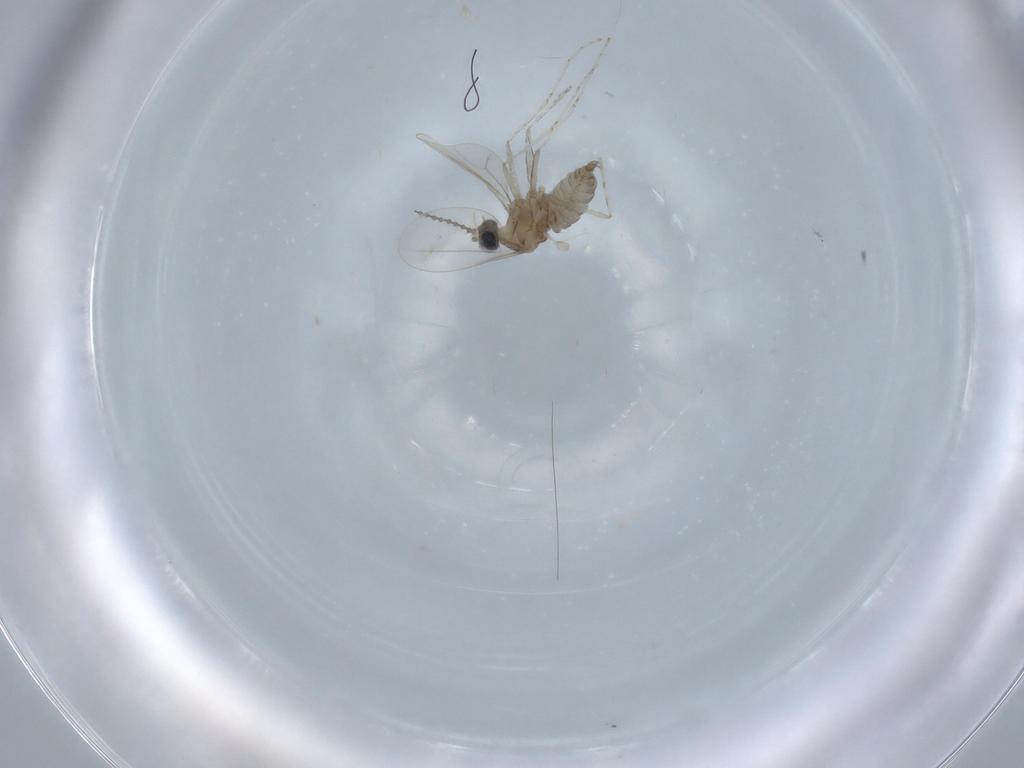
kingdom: Animalia
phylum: Arthropoda
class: Insecta
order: Diptera
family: Cecidomyiidae
